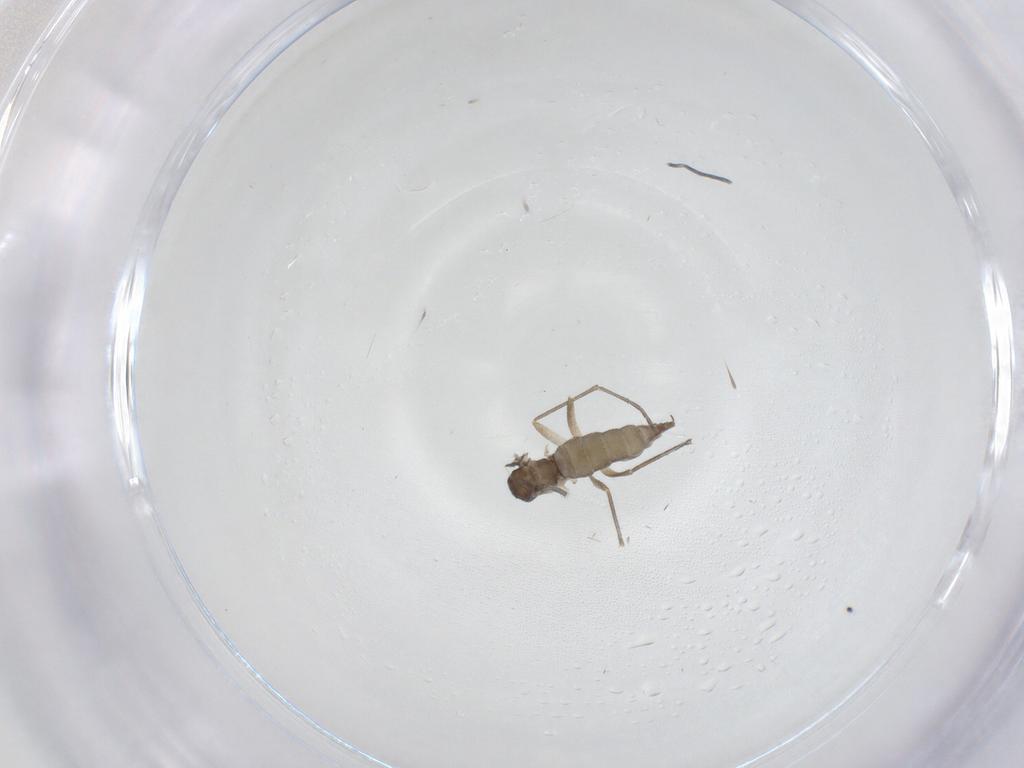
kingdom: Animalia
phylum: Arthropoda
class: Insecta
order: Diptera
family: Sciaridae
